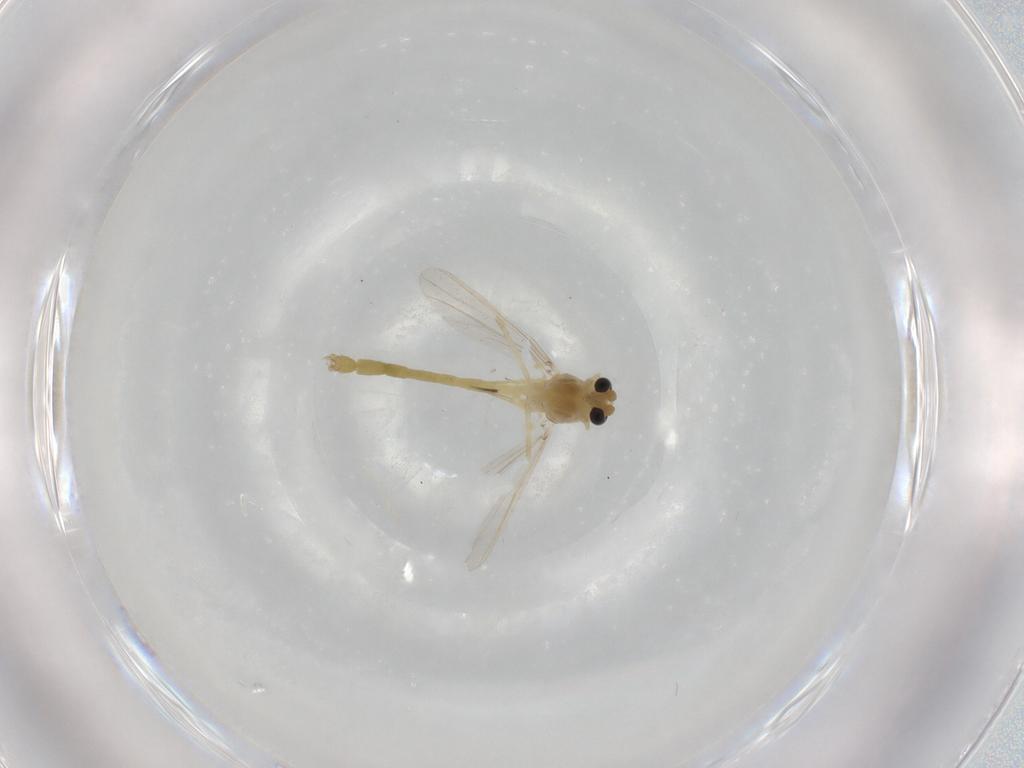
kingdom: Animalia
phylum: Arthropoda
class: Insecta
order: Diptera
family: Chironomidae
